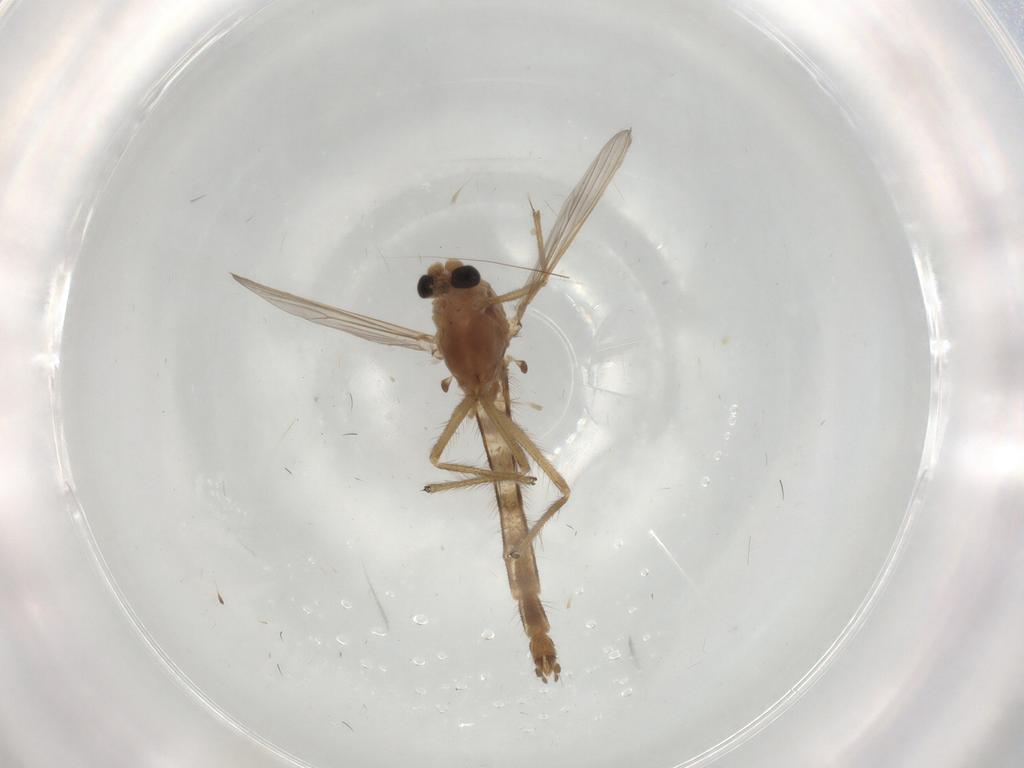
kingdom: Animalia
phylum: Arthropoda
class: Insecta
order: Diptera
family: Chironomidae
